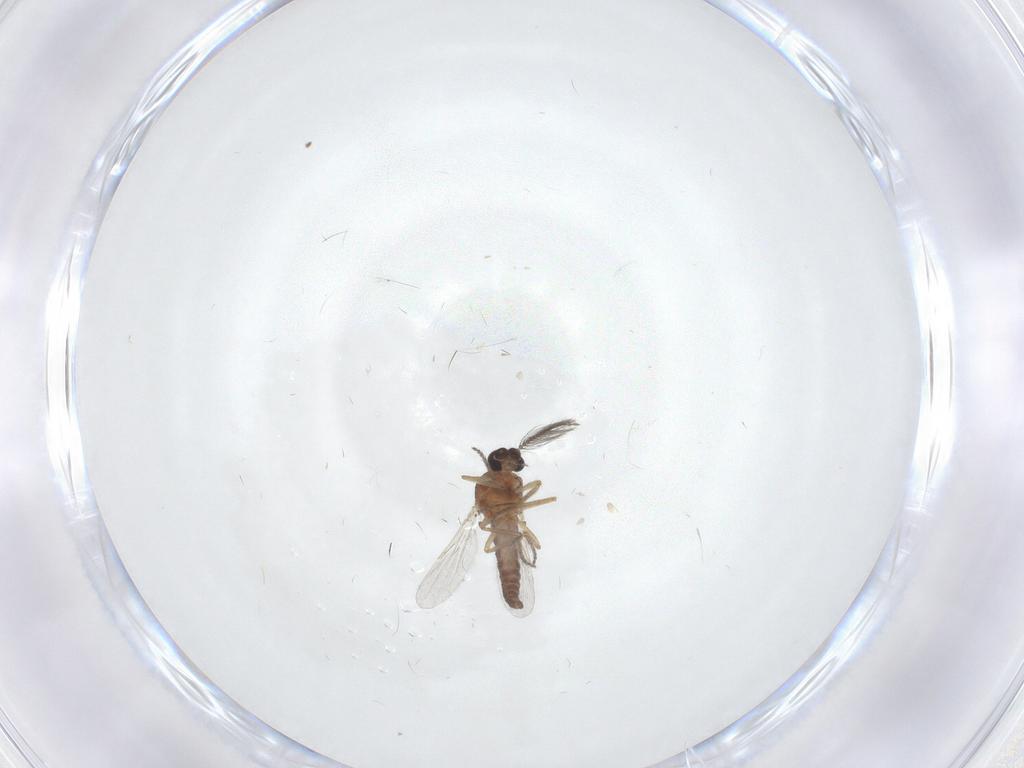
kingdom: Animalia
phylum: Arthropoda
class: Insecta
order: Diptera
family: Ceratopogonidae
